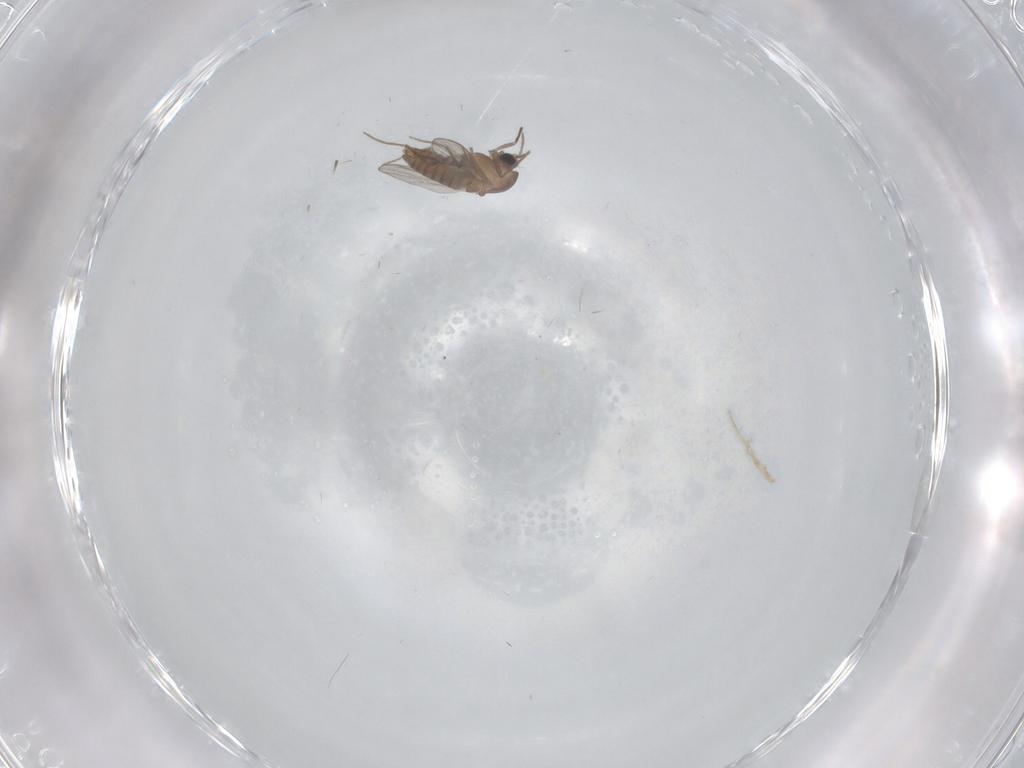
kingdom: Animalia
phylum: Arthropoda
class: Insecta
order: Diptera
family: Chironomidae
